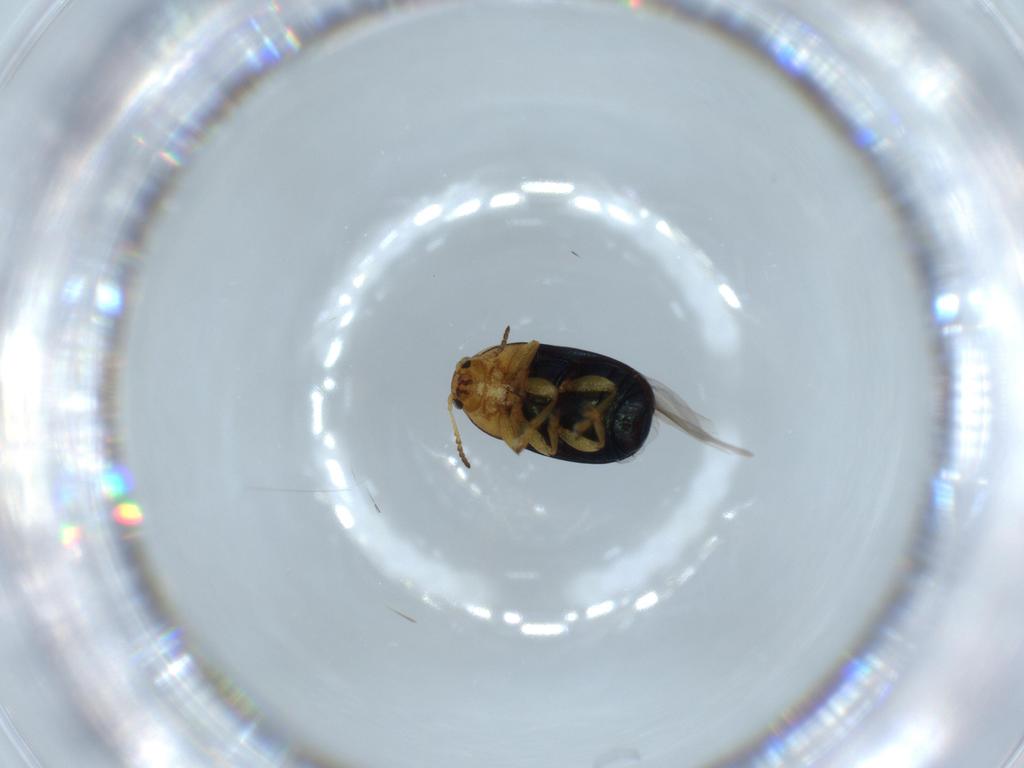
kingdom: Animalia
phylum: Arthropoda
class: Insecta
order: Coleoptera
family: Chrysomelidae
